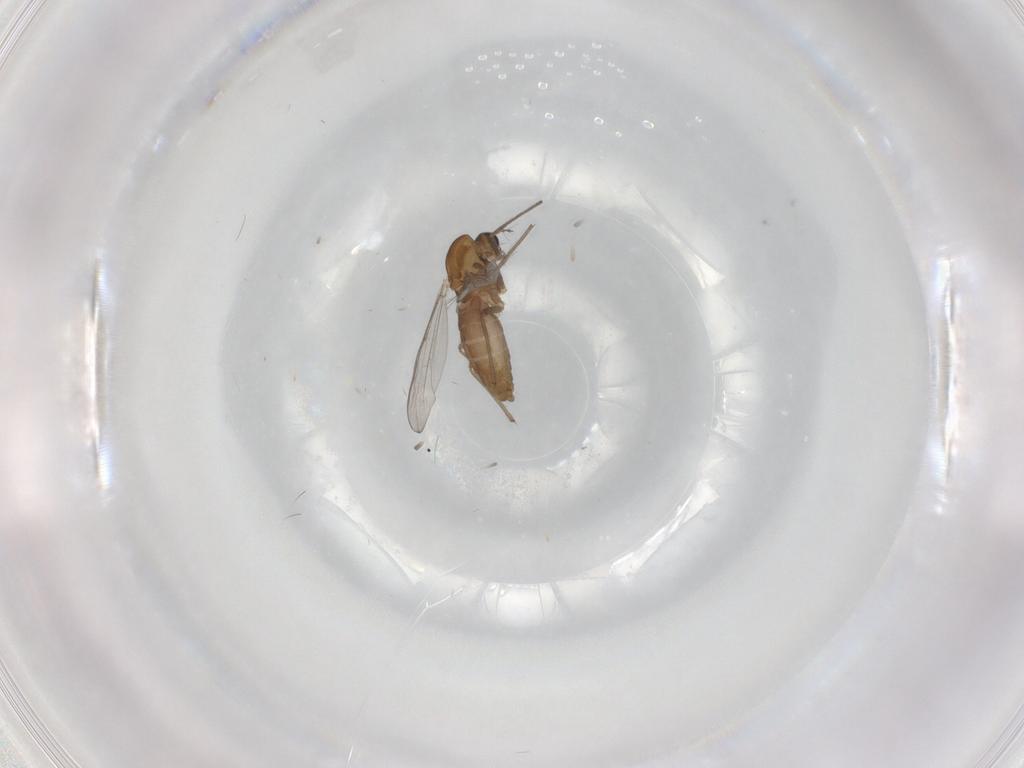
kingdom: Animalia
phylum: Arthropoda
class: Insecta
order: Diptera
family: Chironomidae
